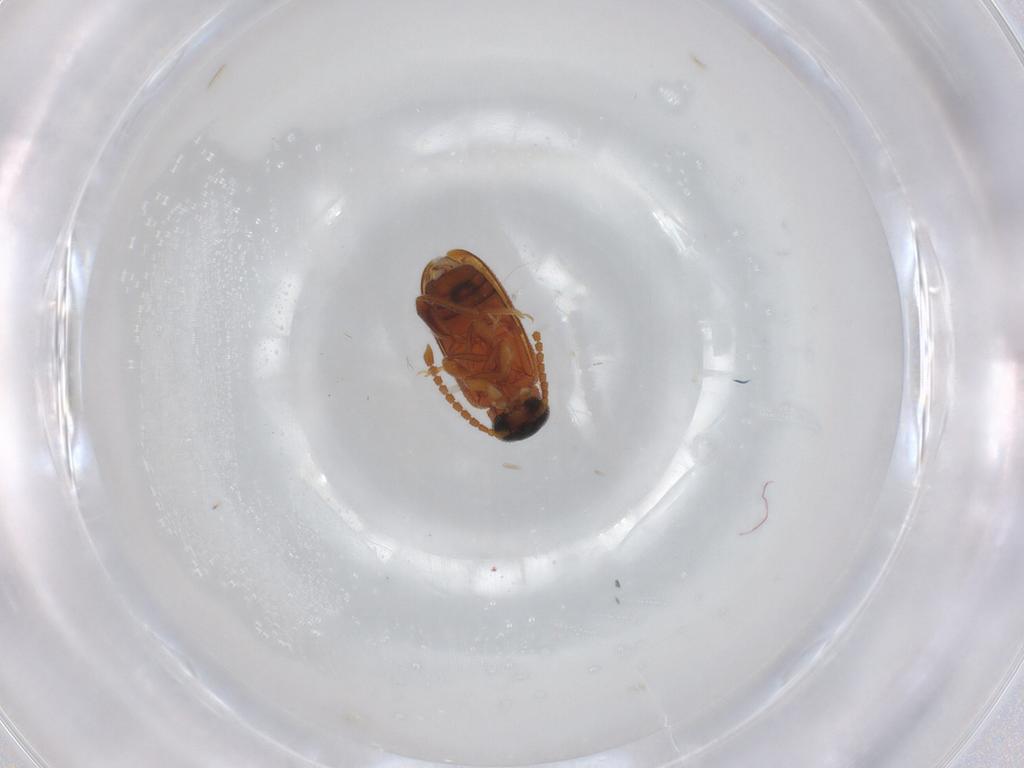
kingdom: Animalia
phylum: Arthropoda
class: Insecta
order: Coleoptera
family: Aderidae
